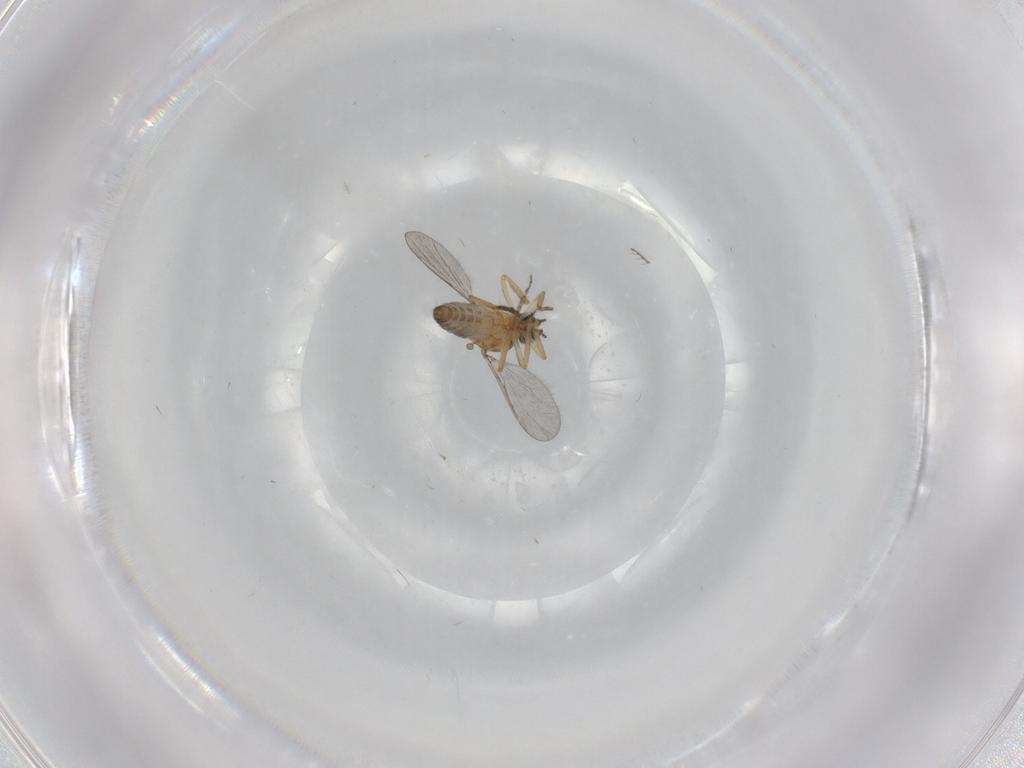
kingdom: Animalia
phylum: Arthropoda
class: Insecta
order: Diptera
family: Ceratopogonidae
